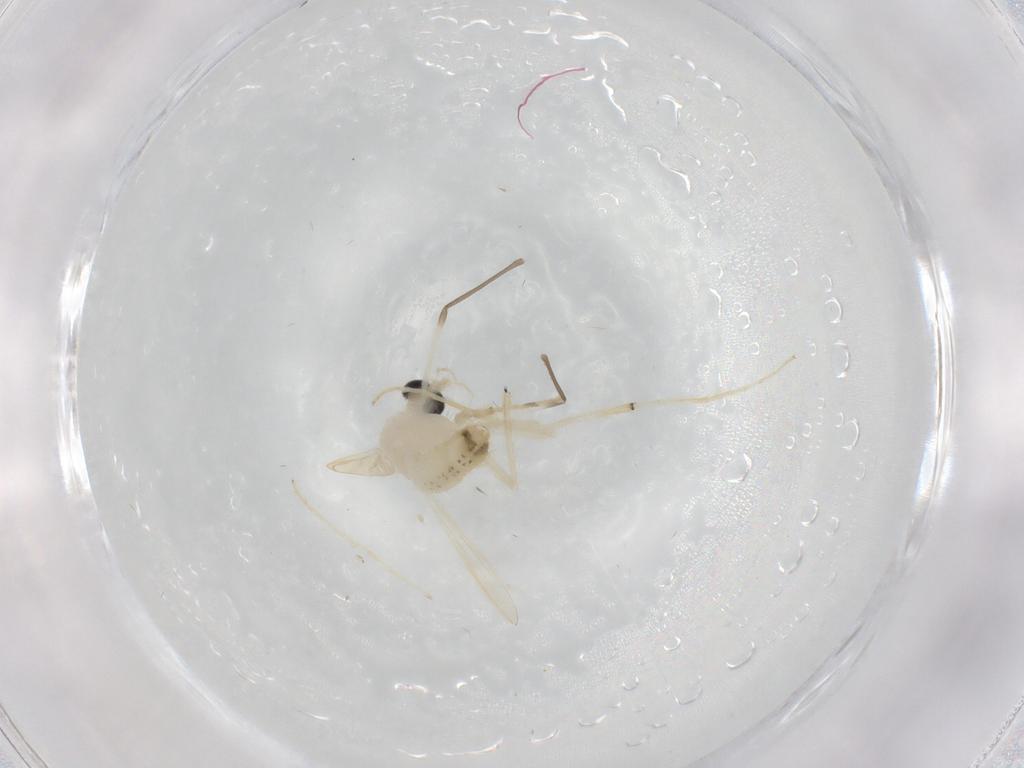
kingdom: Animalia
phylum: Arthropoda
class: Insecta
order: Diptera
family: Chironomidae
